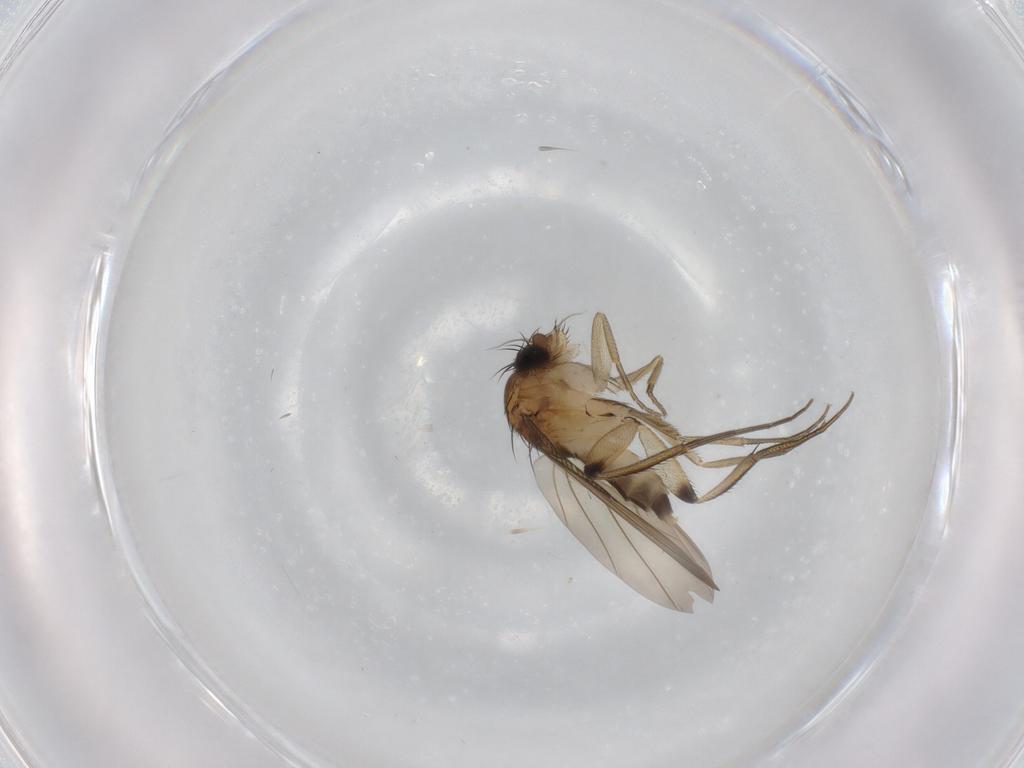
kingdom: Animalia
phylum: Arthropoda
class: Insecta
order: Diptera
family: Phoridae
